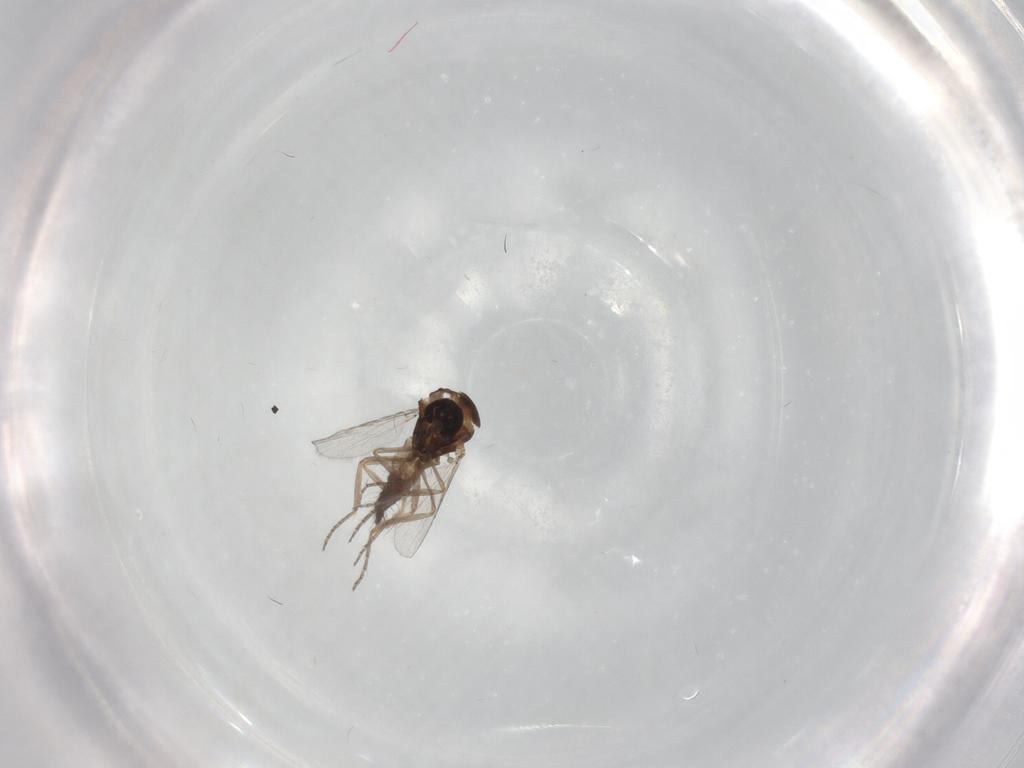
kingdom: Animalia
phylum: Arthropoda
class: Insecta
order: Diptera
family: Ceratopogonidae
